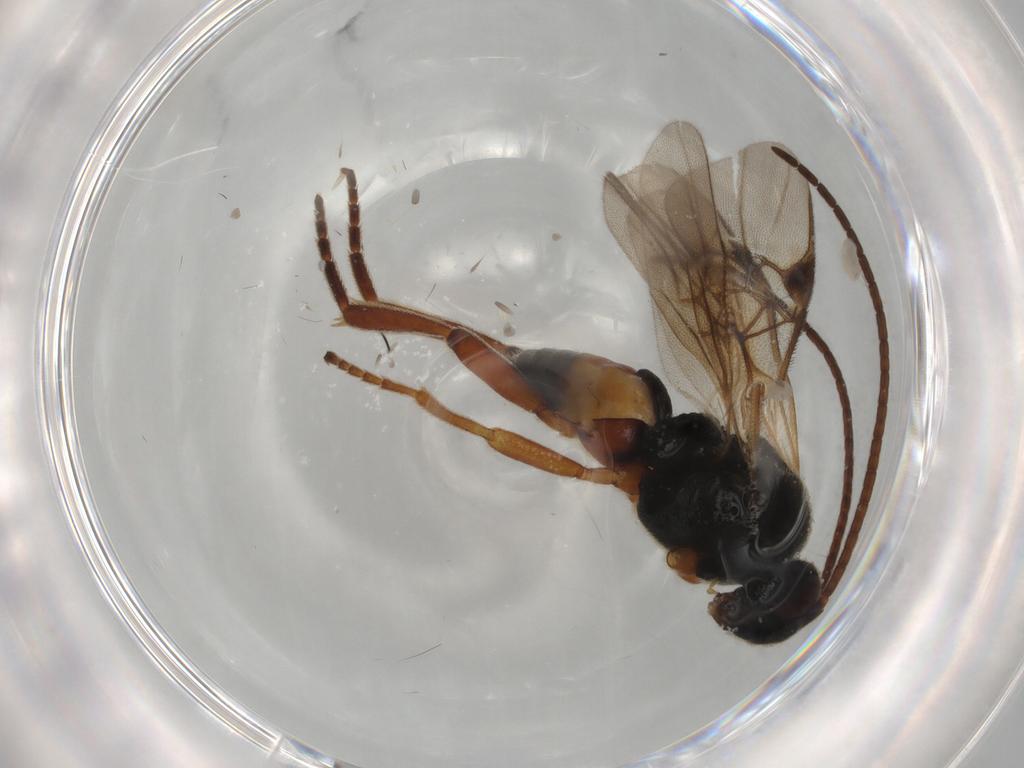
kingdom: Animalia
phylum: Arthropoda
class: Insecta
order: Hymenoptera
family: Braconidae
